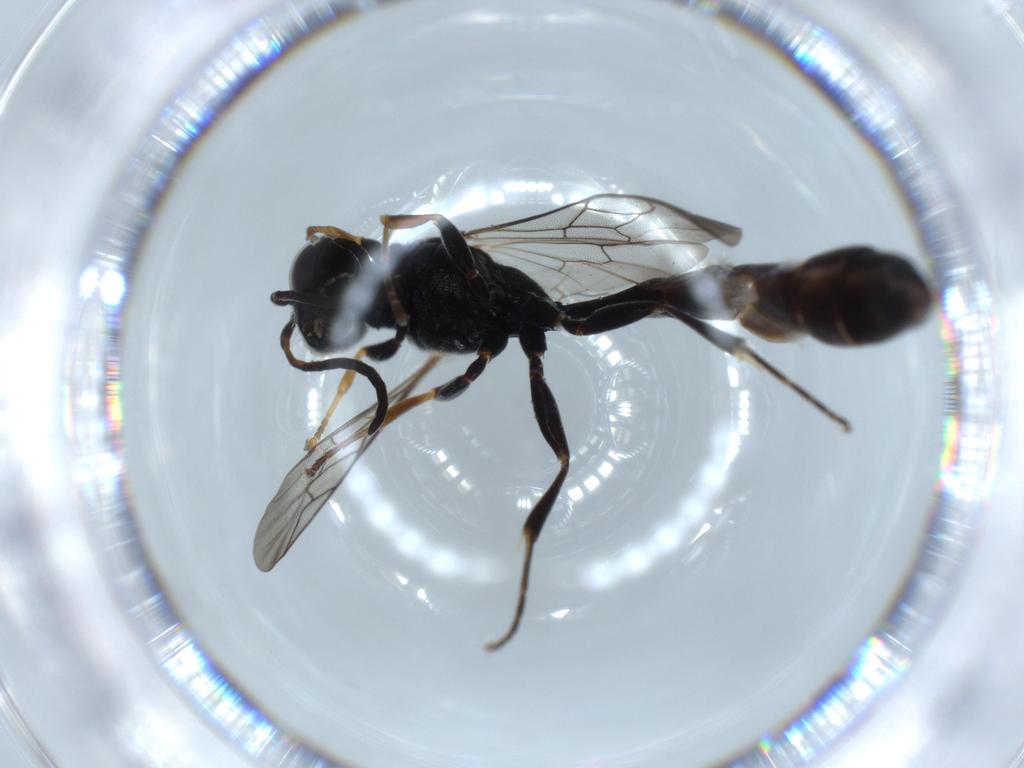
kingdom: Animalia
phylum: Arthropoda
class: Insecta
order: Hymenoptera
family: Crabronidae
